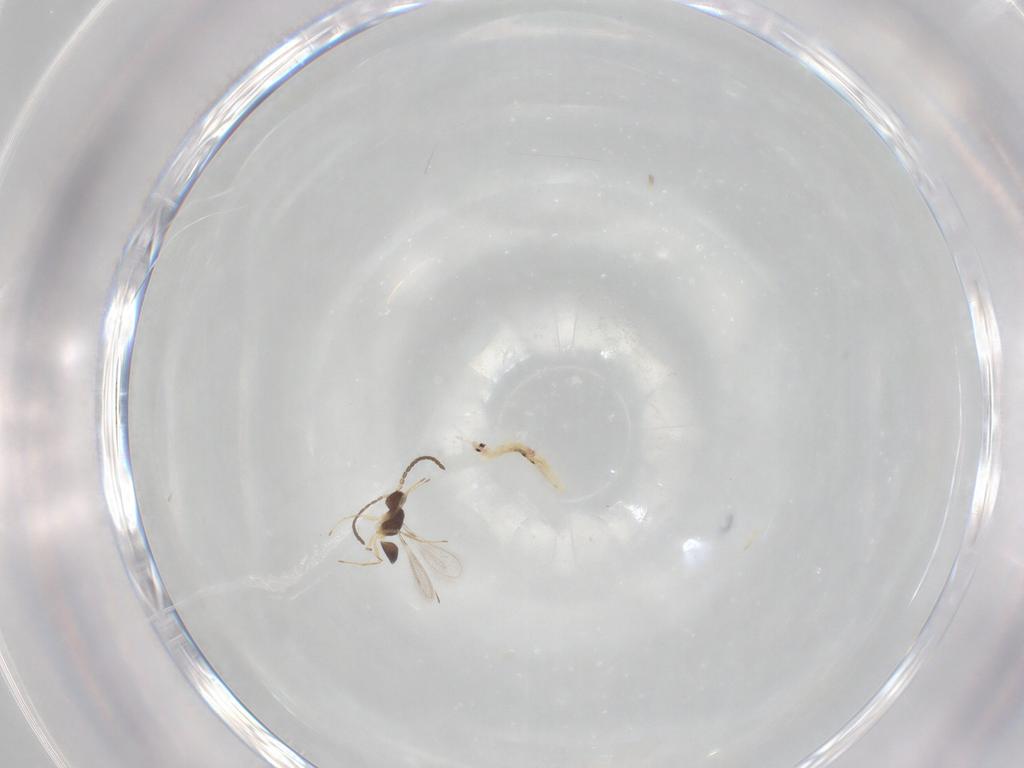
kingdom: Animalia
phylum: Arthropoda
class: Insecta
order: Hymenoptera
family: Mymaridae
